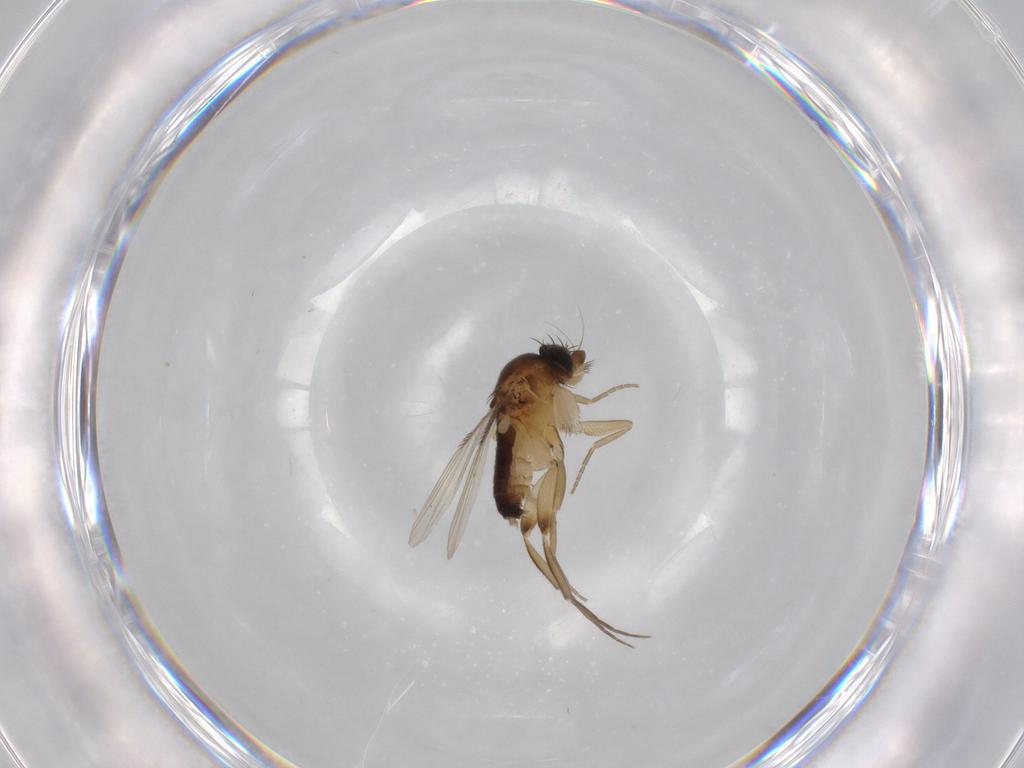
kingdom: Animalia
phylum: Arthropoda
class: Insecta
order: Diptera
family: Phoridae
